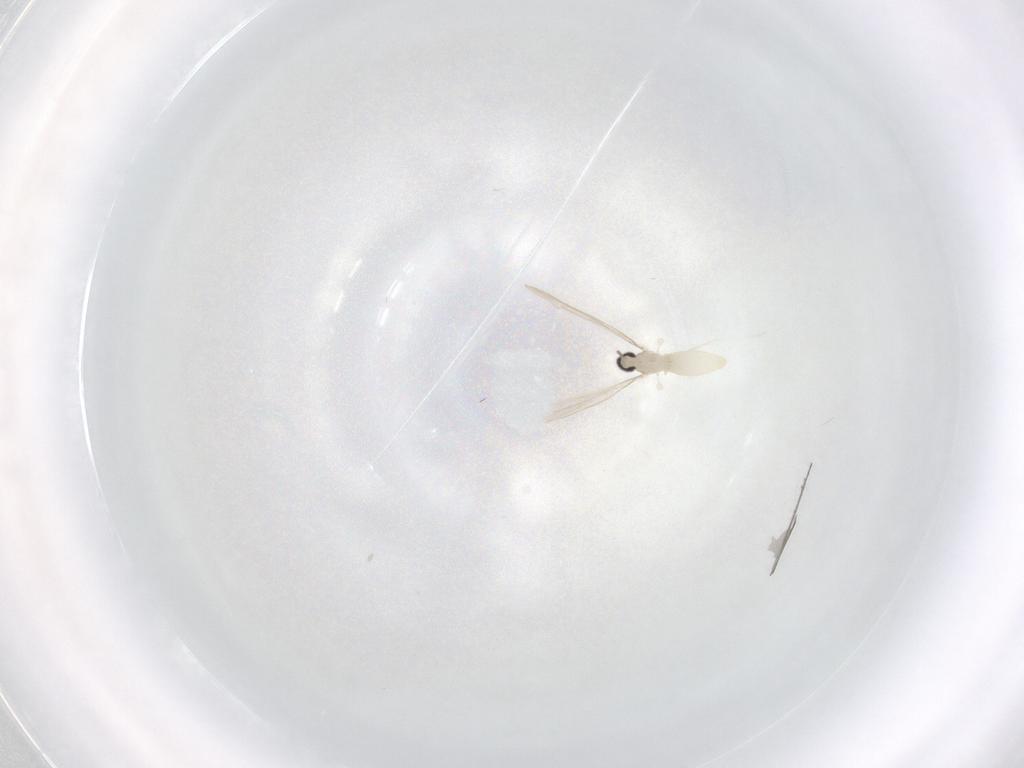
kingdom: Animalia
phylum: Arthropoda
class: Insecta
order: Diptera
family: Cecidomyiidae
